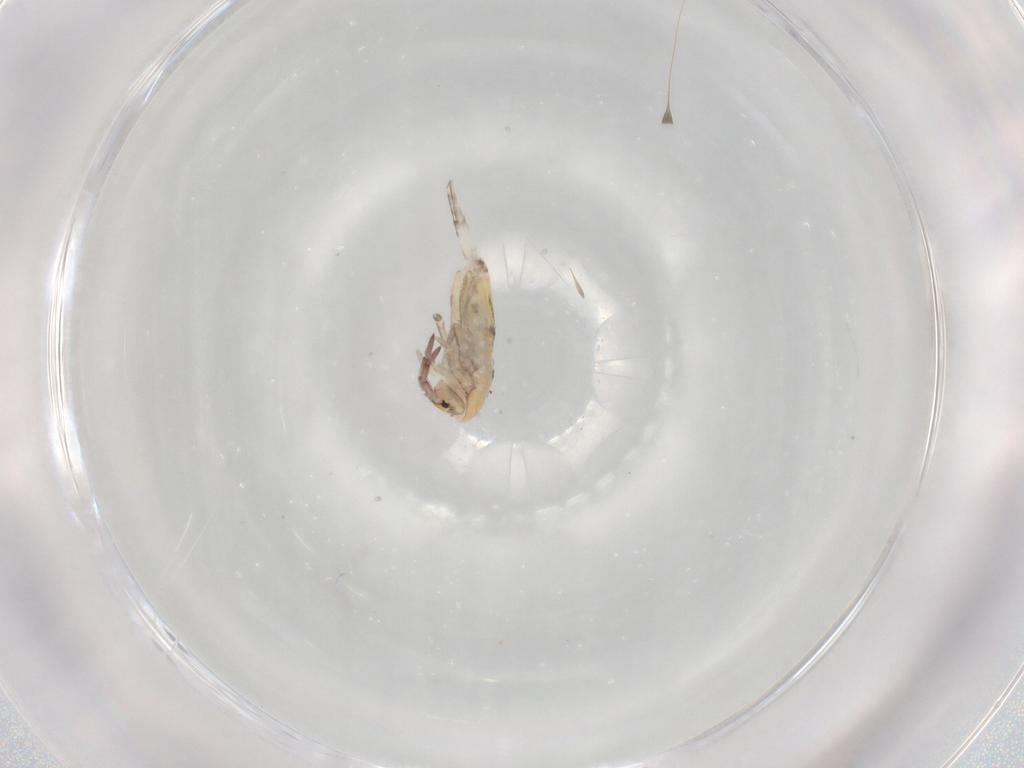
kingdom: Animalia
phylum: Arthropoda
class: Collembola
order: Entomobryomorpha
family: Entomobryidae
